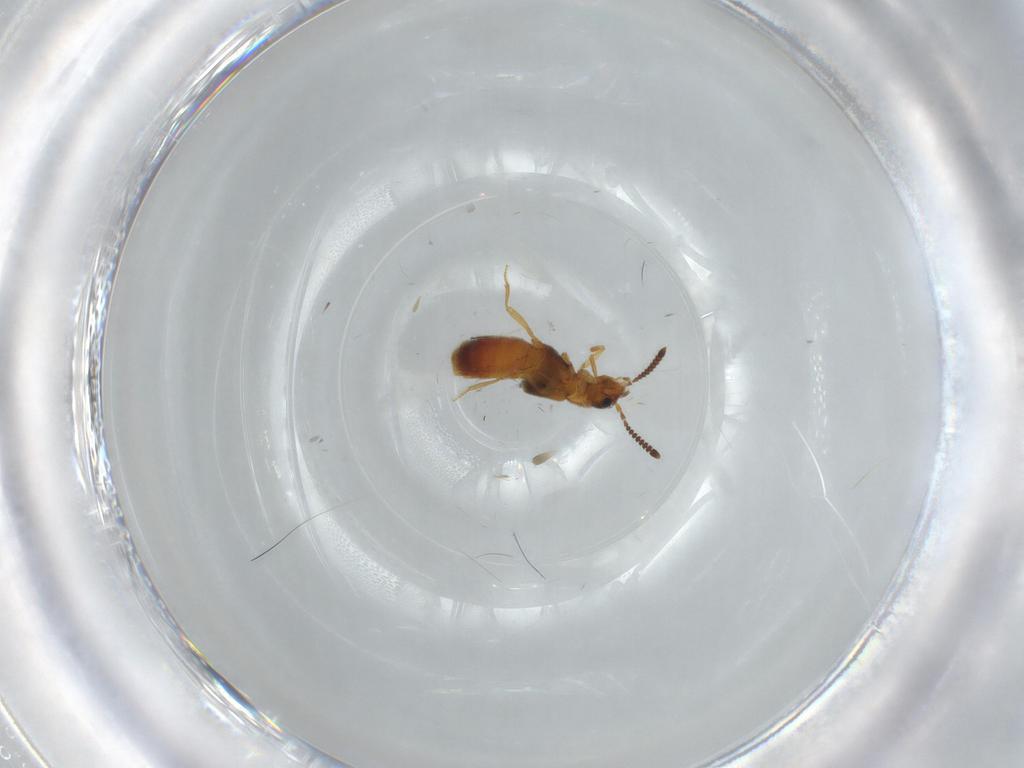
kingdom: Animalia
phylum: Arthropoda
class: Insecta
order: Coleoptera
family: Staphylinidae
